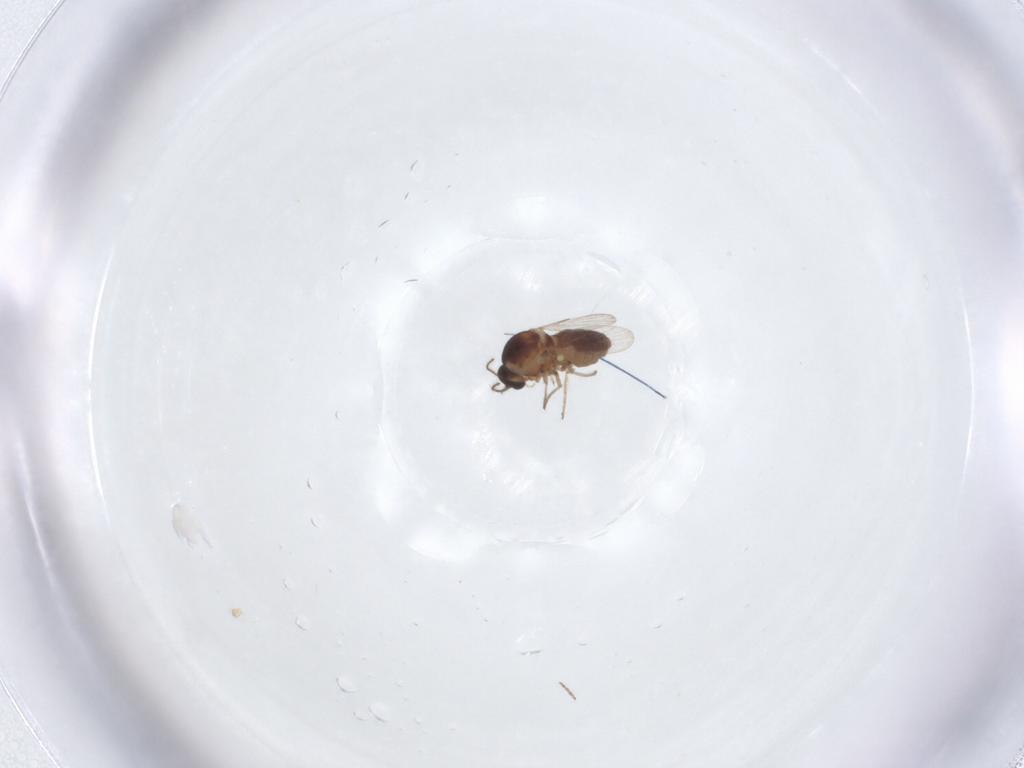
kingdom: Animalia
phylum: Arthropoda
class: Insecta
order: Diptera
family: Ceratopogonidae
